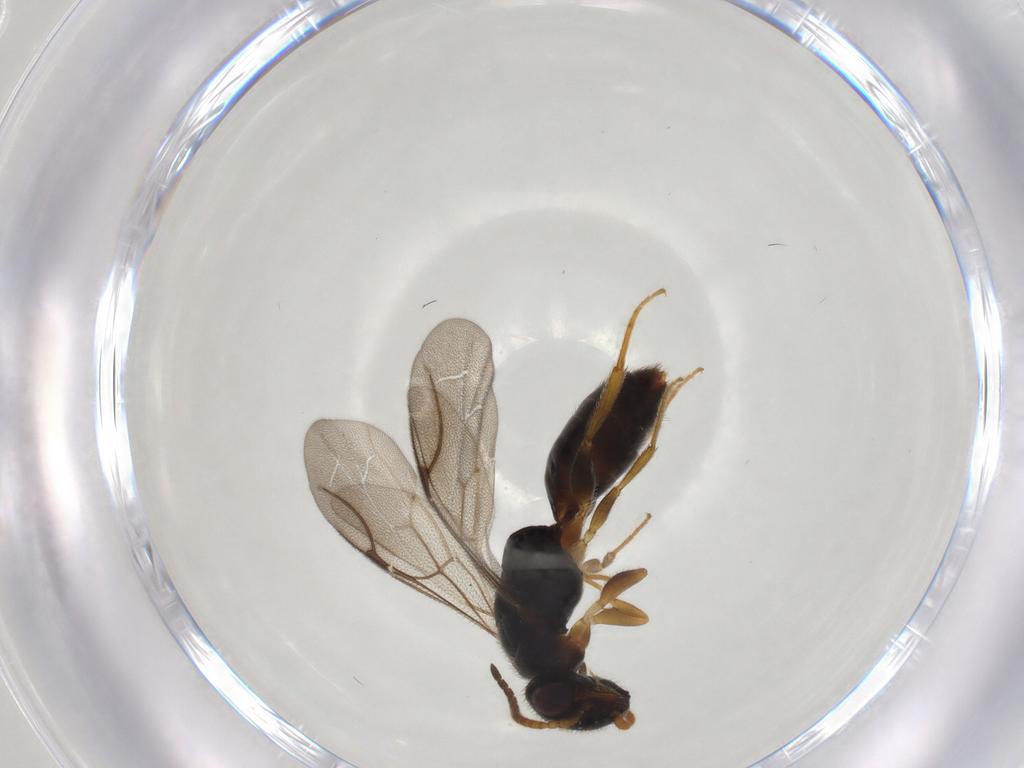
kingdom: Animalia
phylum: Arthropoda
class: Insecta
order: Hymenoptera
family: Bethylidae
